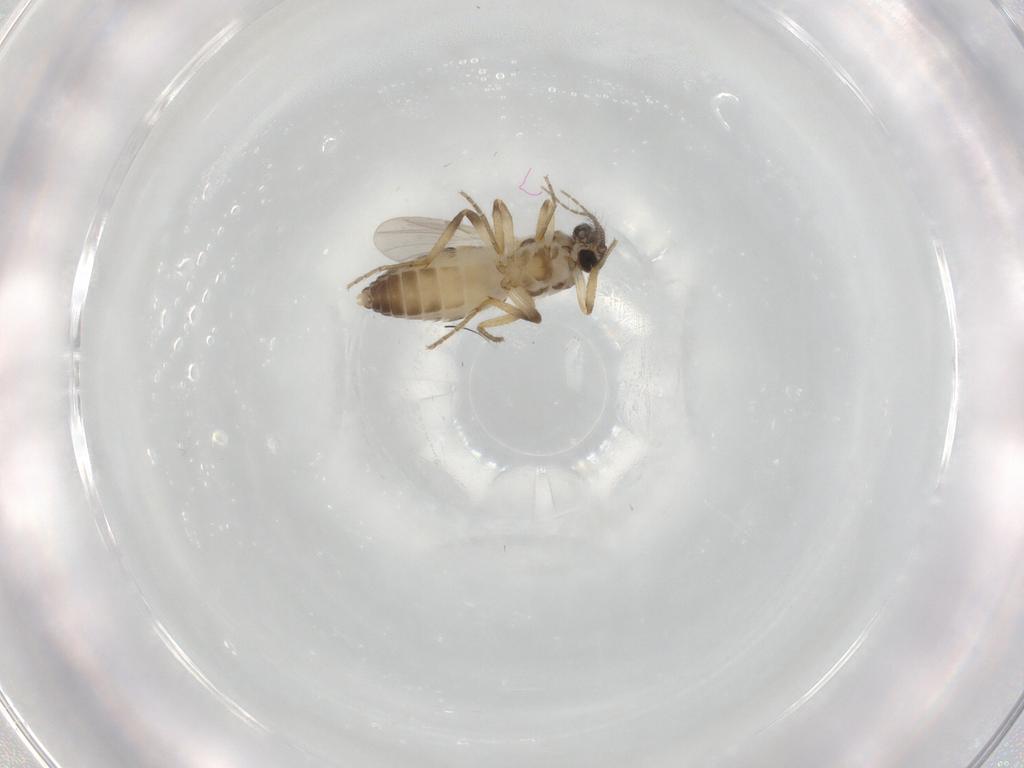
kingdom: Animalia
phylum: Arthropoda
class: Insecta
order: Diptera
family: Ceratopogonidae
